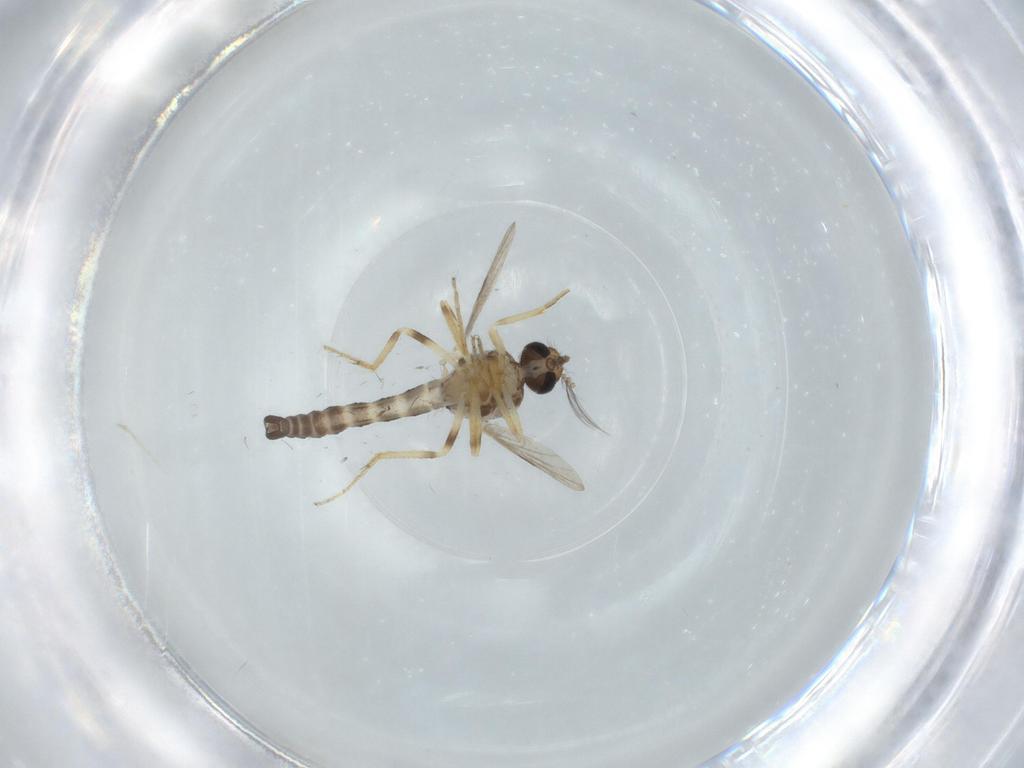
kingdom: Animalia
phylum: Arthropoda
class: Insecta
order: Diptera
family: Ceratopogonidae
